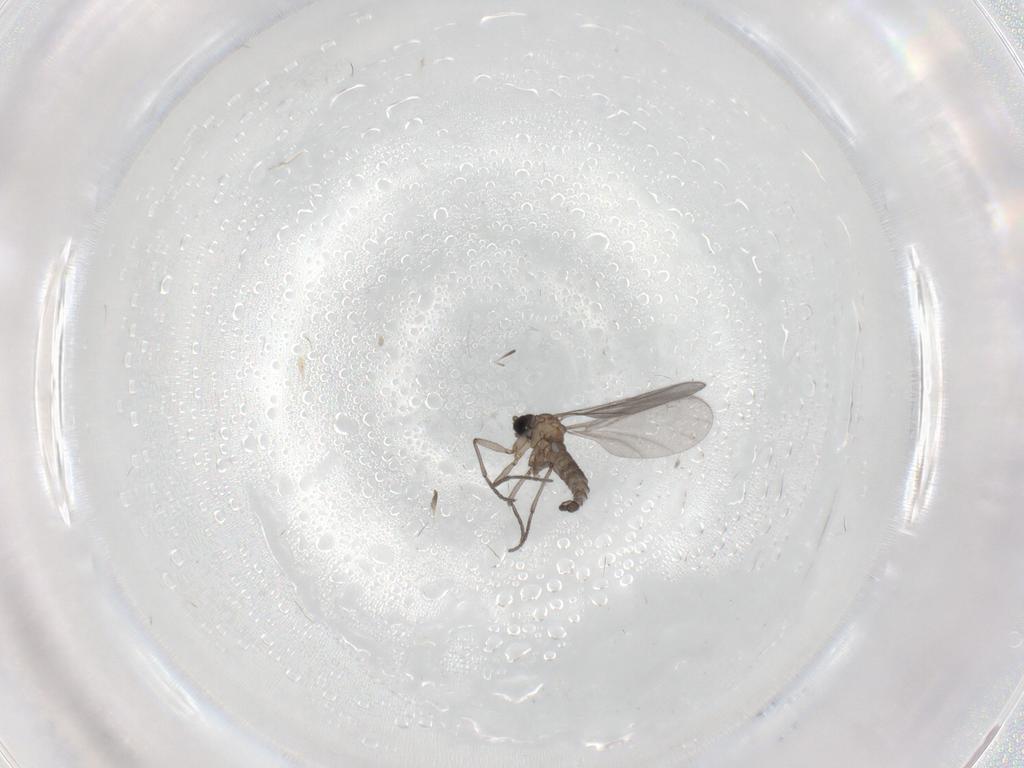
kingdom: Animalia
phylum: Arthropoda
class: Insecta
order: Diptera
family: Sciaridae
